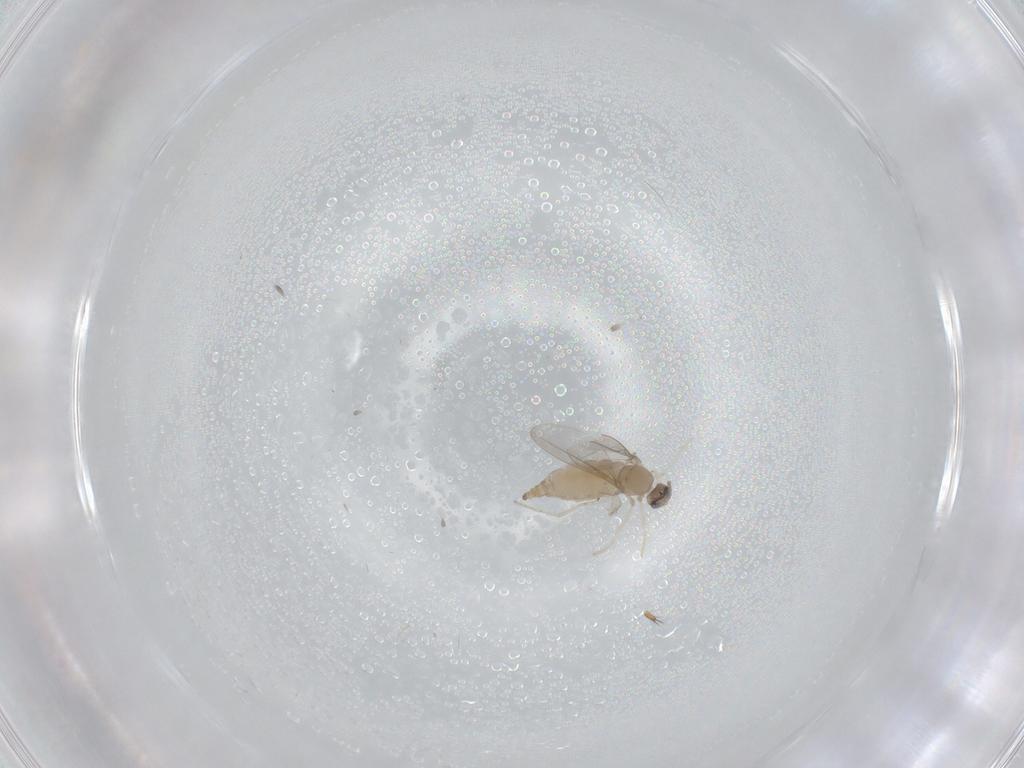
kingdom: Animalia
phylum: Arthropoda
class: Insecta
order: Diptera
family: Cecidomyiidae
